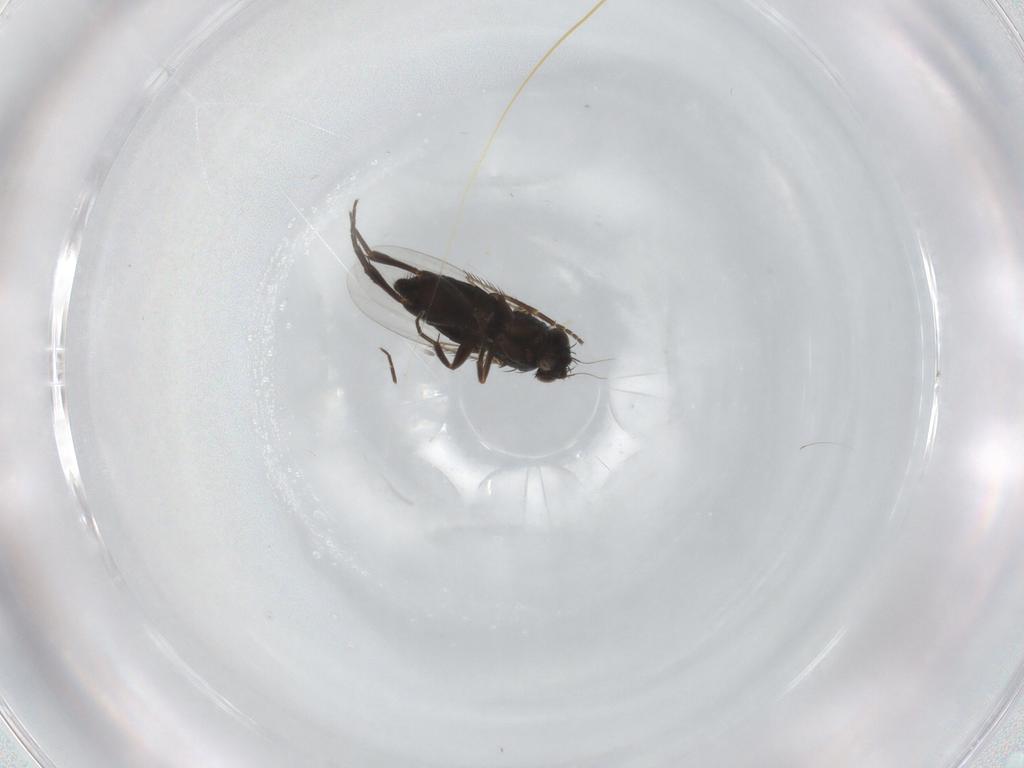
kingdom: Animalia
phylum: Arthropoda
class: Insecta
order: Diptera
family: Phoridae
